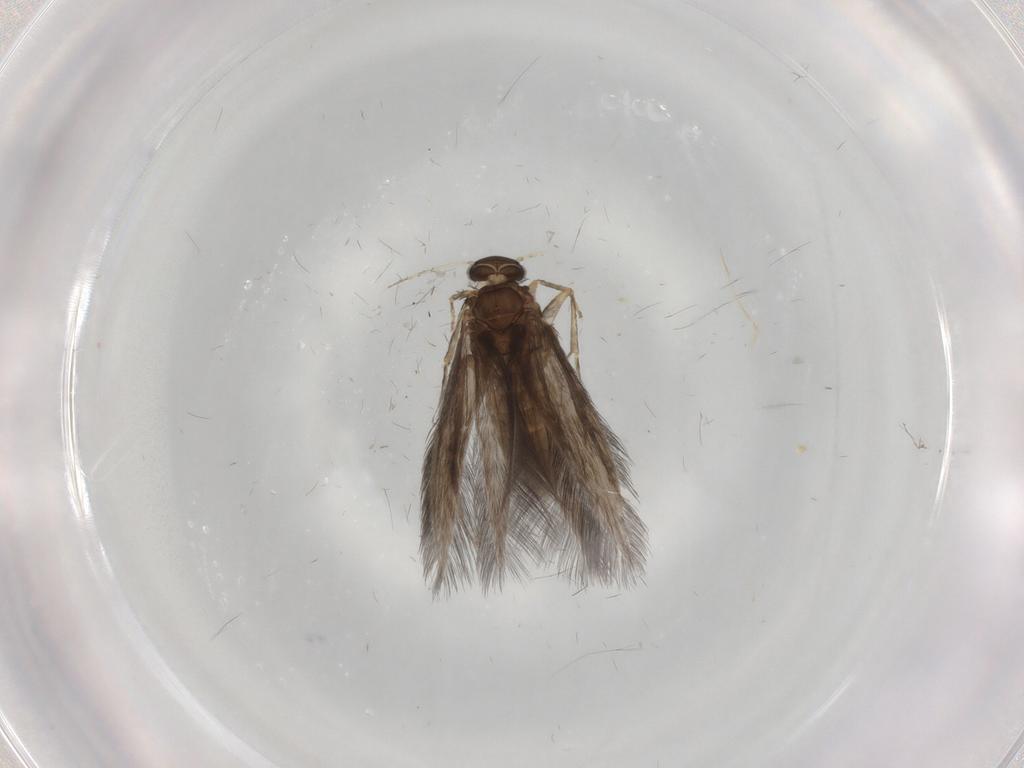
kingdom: Animalia
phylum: Arthropoda
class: Insecta
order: Trichoptera
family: Hydroptilidae
